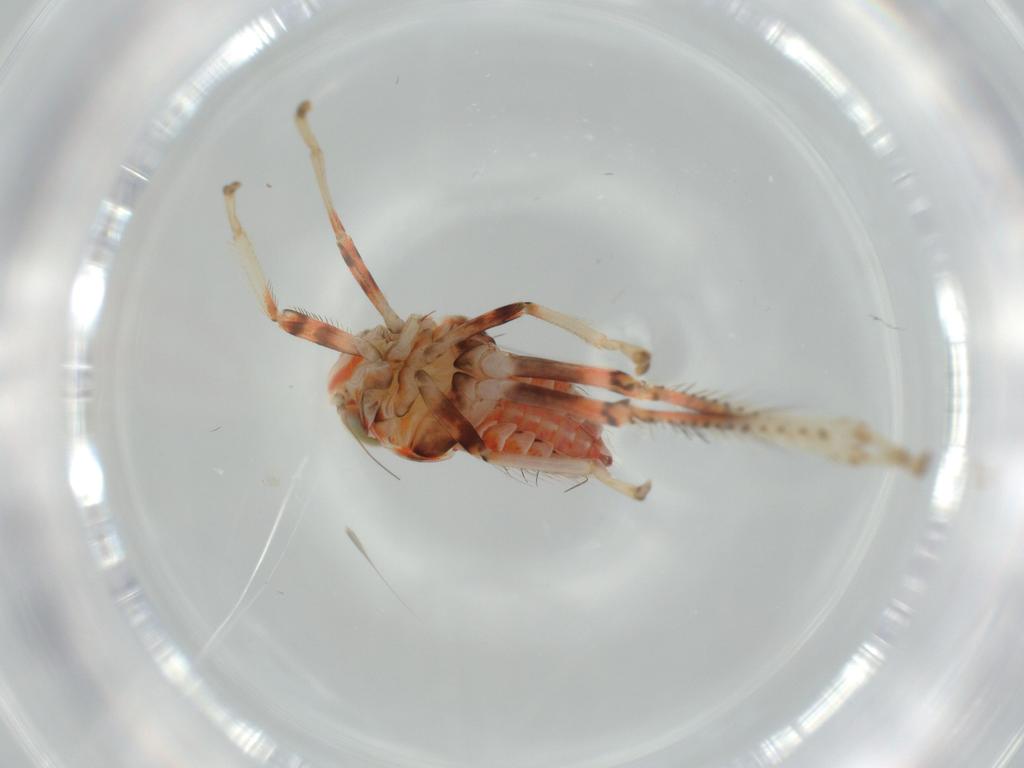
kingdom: Animalia
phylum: Arthropoda
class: Insecta
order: Hemiptera
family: Cicadellidae
